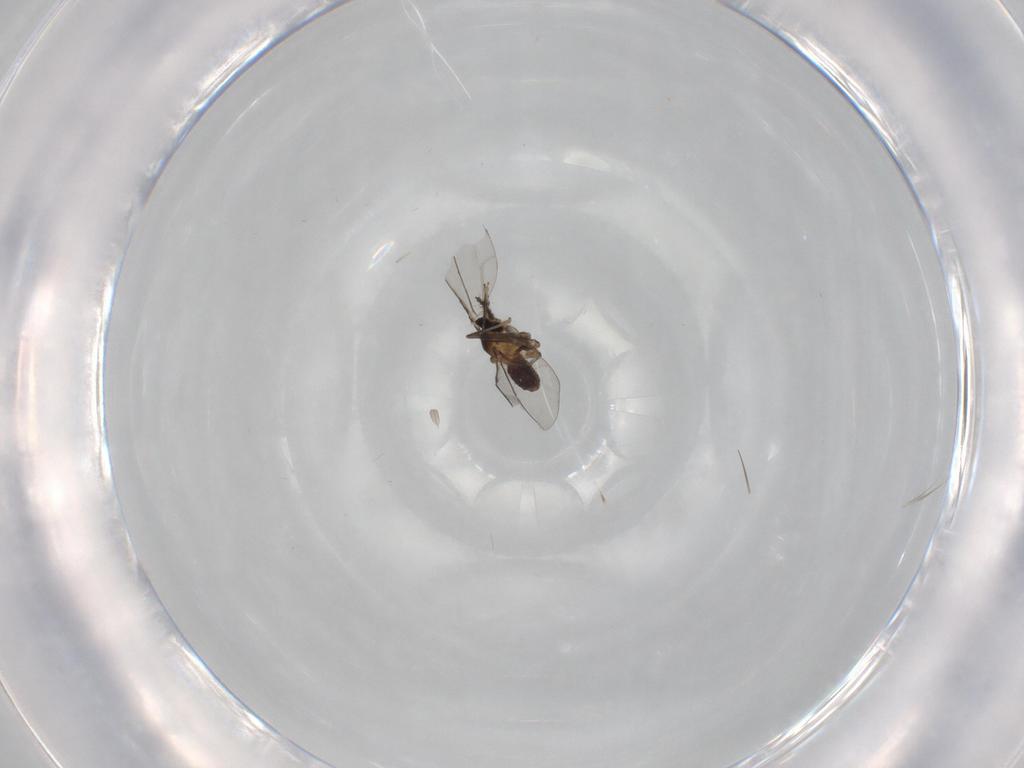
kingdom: Animalia
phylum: Arthropoda
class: Insecta
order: Diptera
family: Cecidomyiidae
